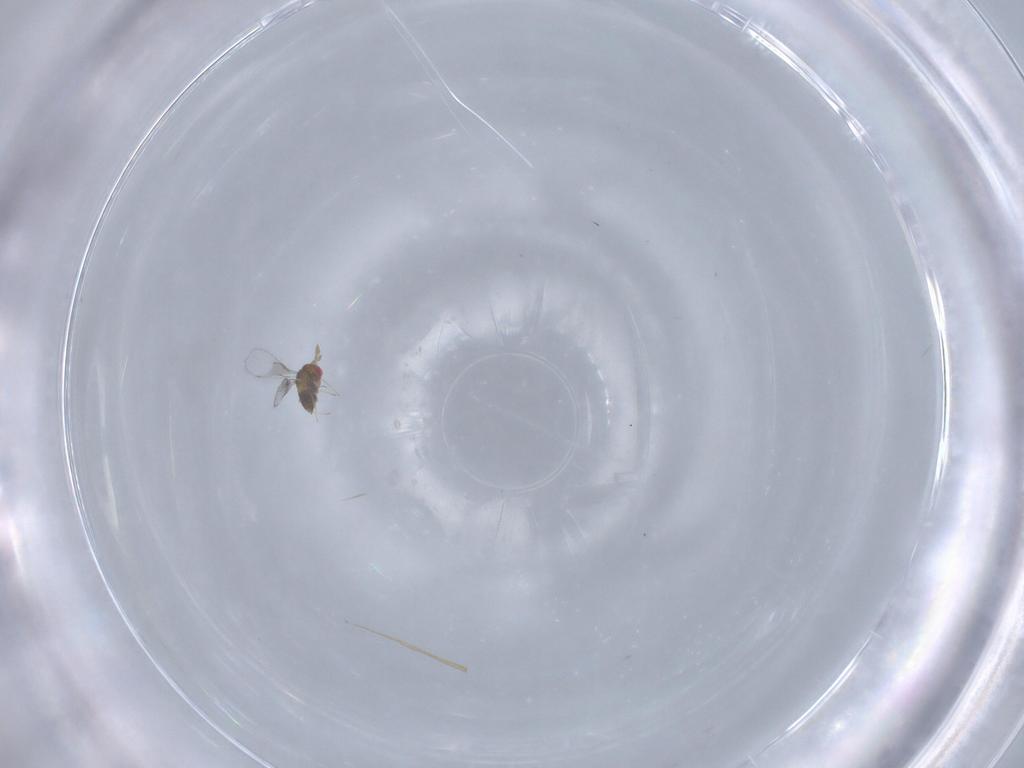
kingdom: Animalia
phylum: Arthropoda
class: Insecta
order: Hymenoptera
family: Trichogrammatidae
